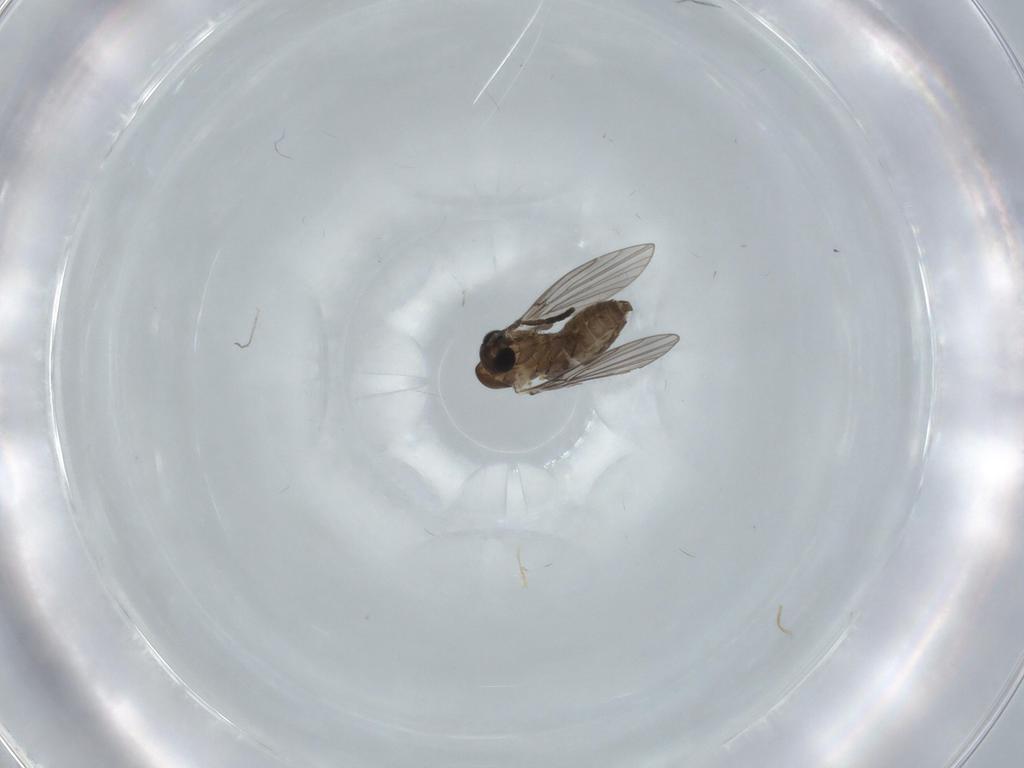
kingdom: Animalia
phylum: Arthropoda
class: Insecta
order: Diptera
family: Psychodidae
